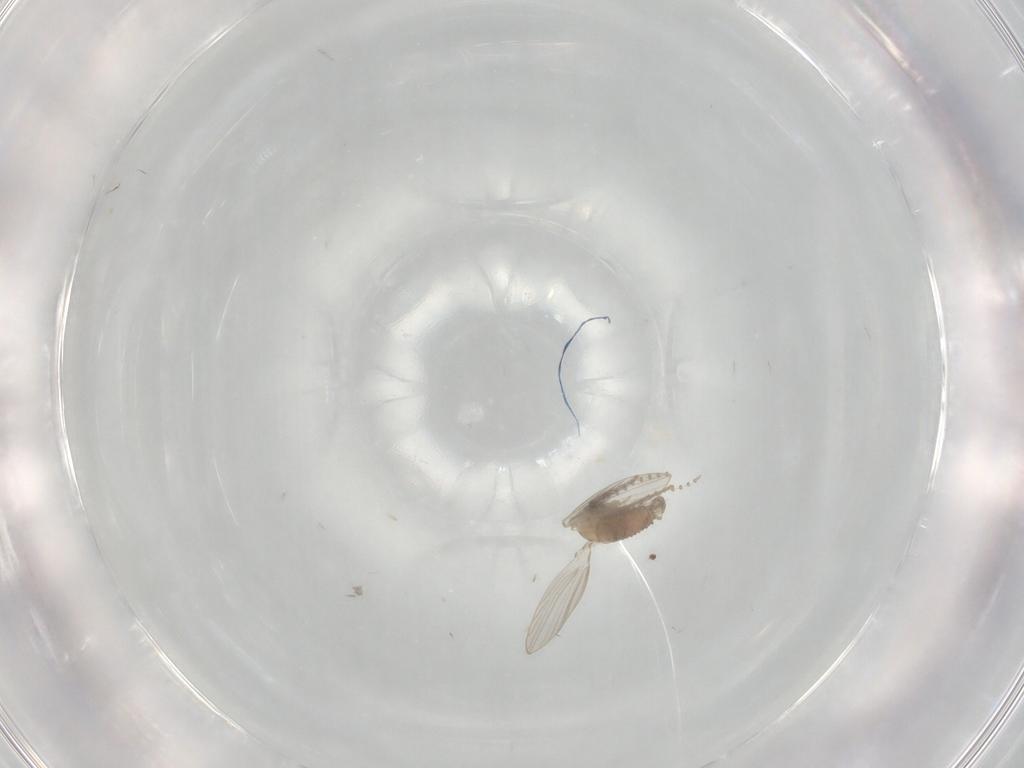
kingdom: Animalia
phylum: Arthropoda
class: Insecta
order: Diptera
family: Psychodidae
